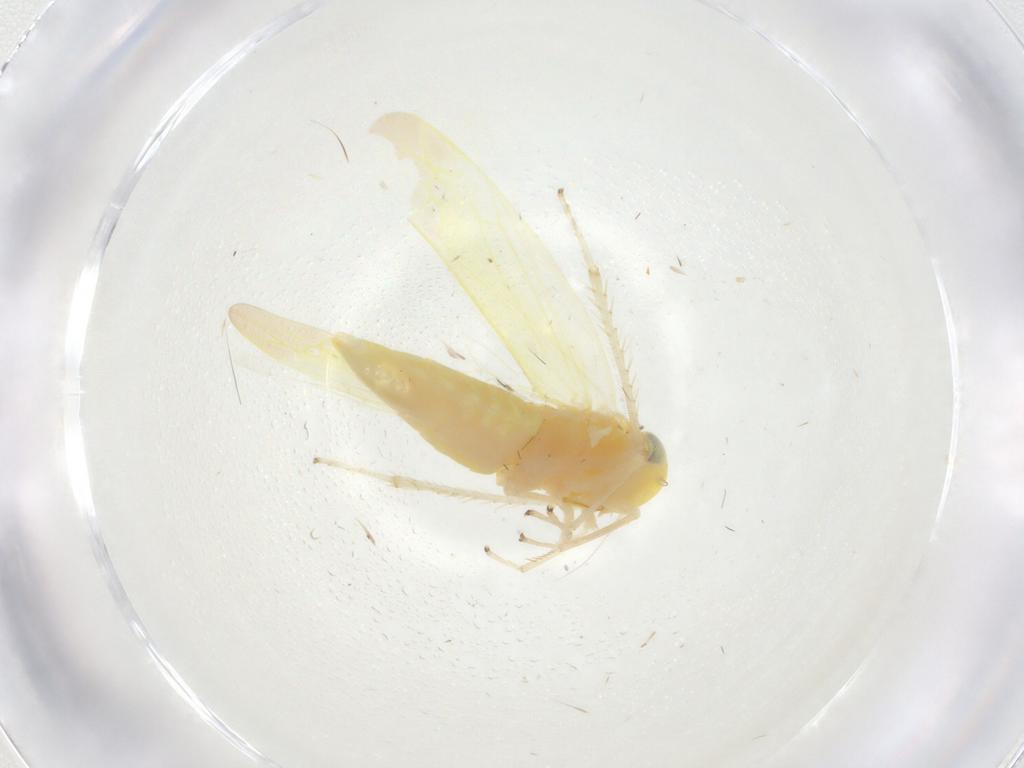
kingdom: Animalia
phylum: Arthropoda
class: Insecta
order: Hemiptera
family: Cicadellidae
